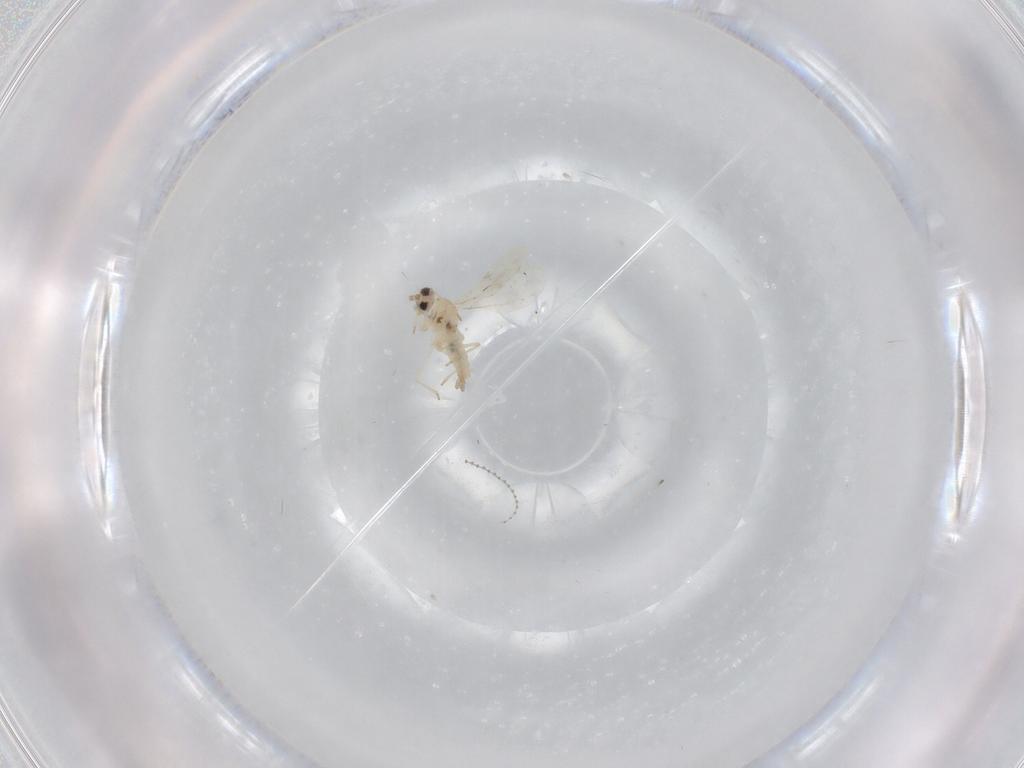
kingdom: Animalia
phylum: Arthropoda
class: Insecta
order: Diptera
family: Cecidomyiidae
